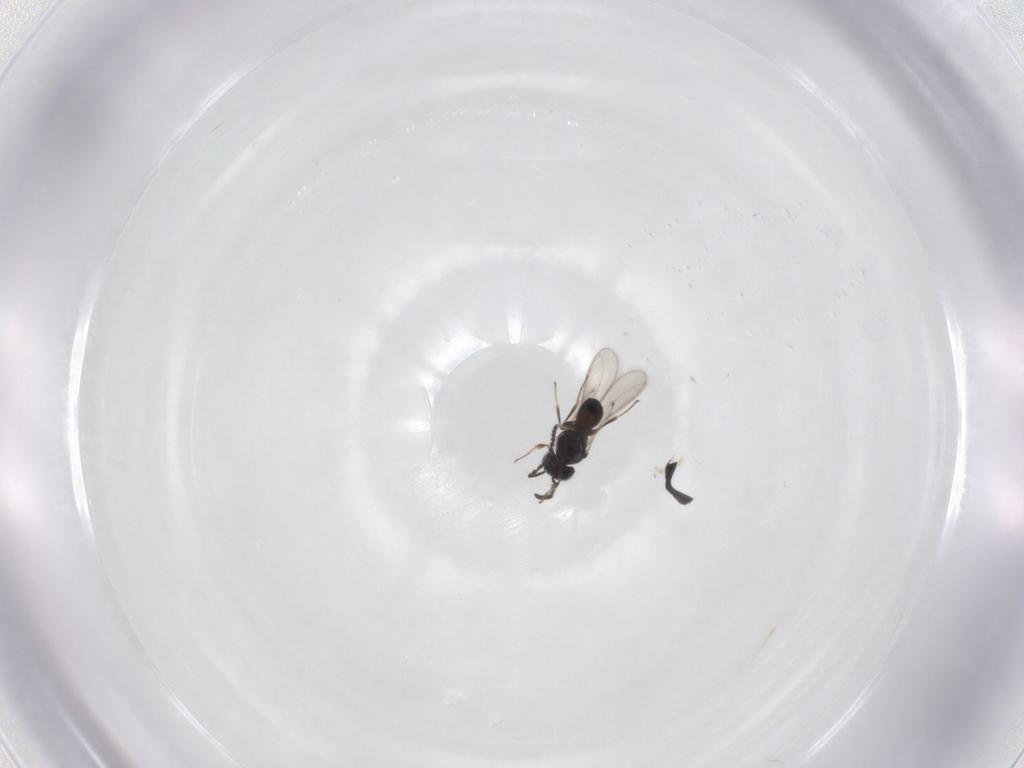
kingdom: Animalia
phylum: Arthropoda
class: Insecta
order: Hymenoptera
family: Scelionidae
